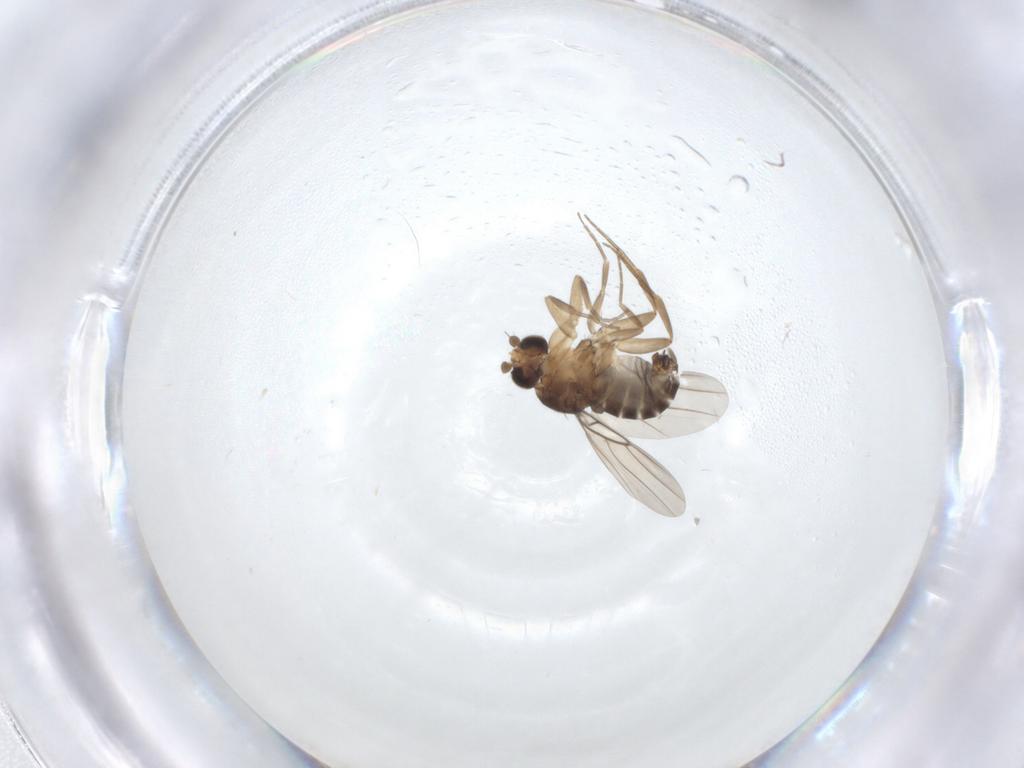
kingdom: Animalia
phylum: Arthropoda
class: Insecta
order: Diptera
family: Phoridae
